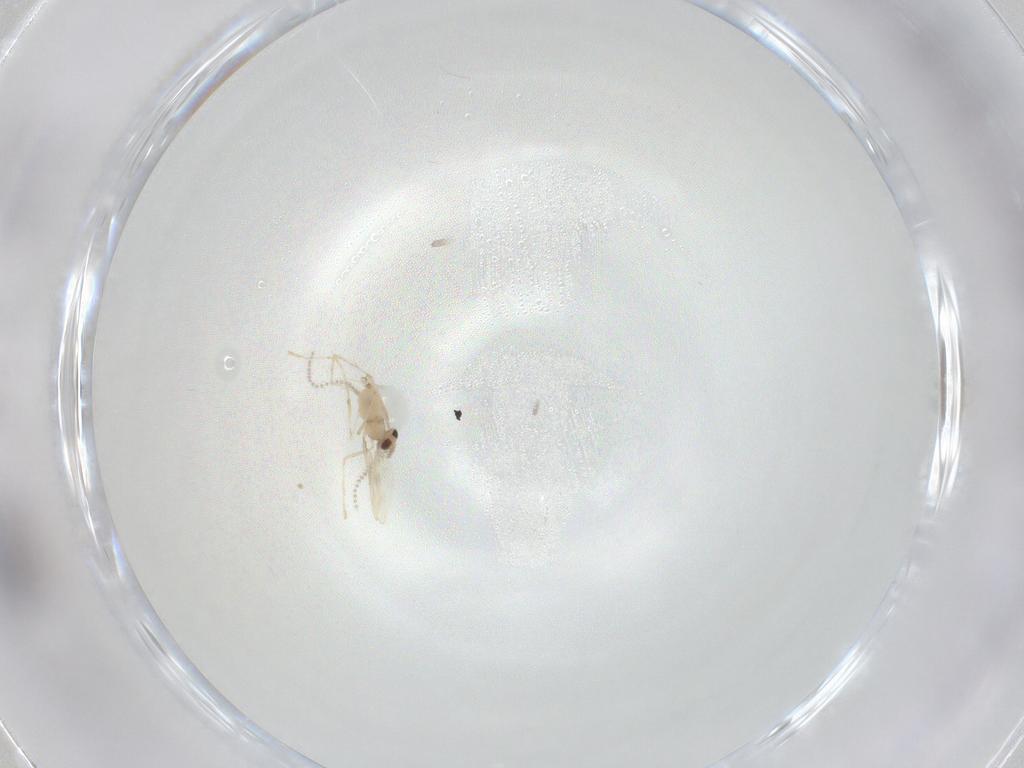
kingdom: Animalia
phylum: Arthropoda
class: Insecta
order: Diptera
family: Cecidomyiidae
